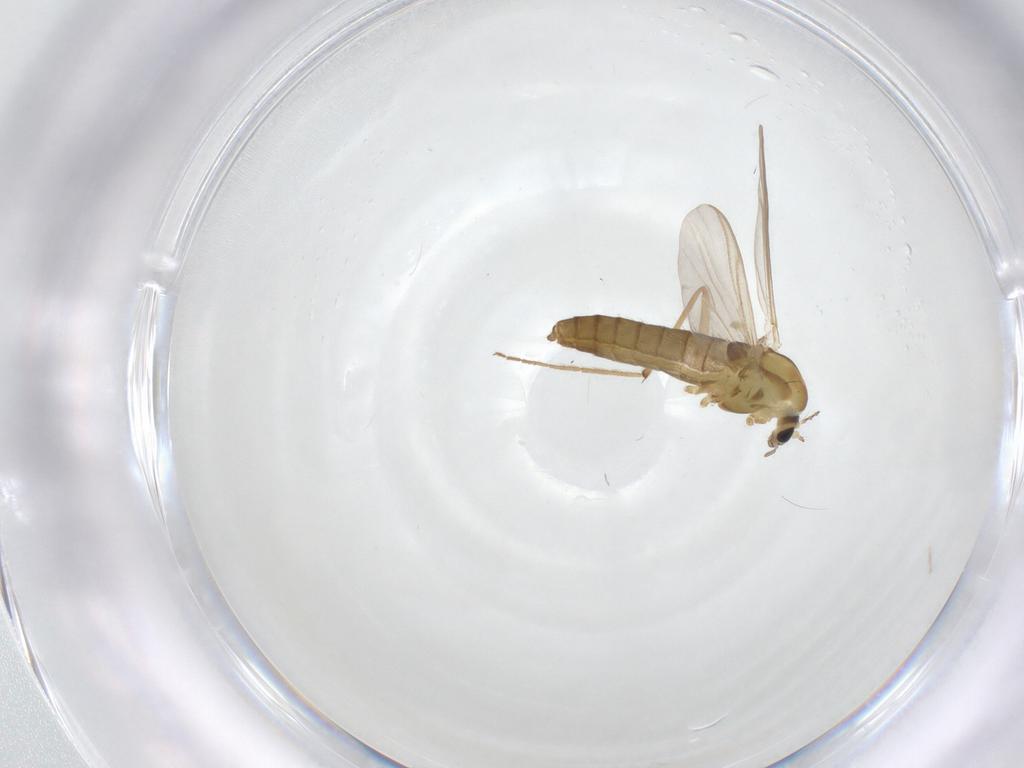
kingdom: Animalia
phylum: Arthropoda
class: Insecta
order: Diptera
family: Chironomidae
